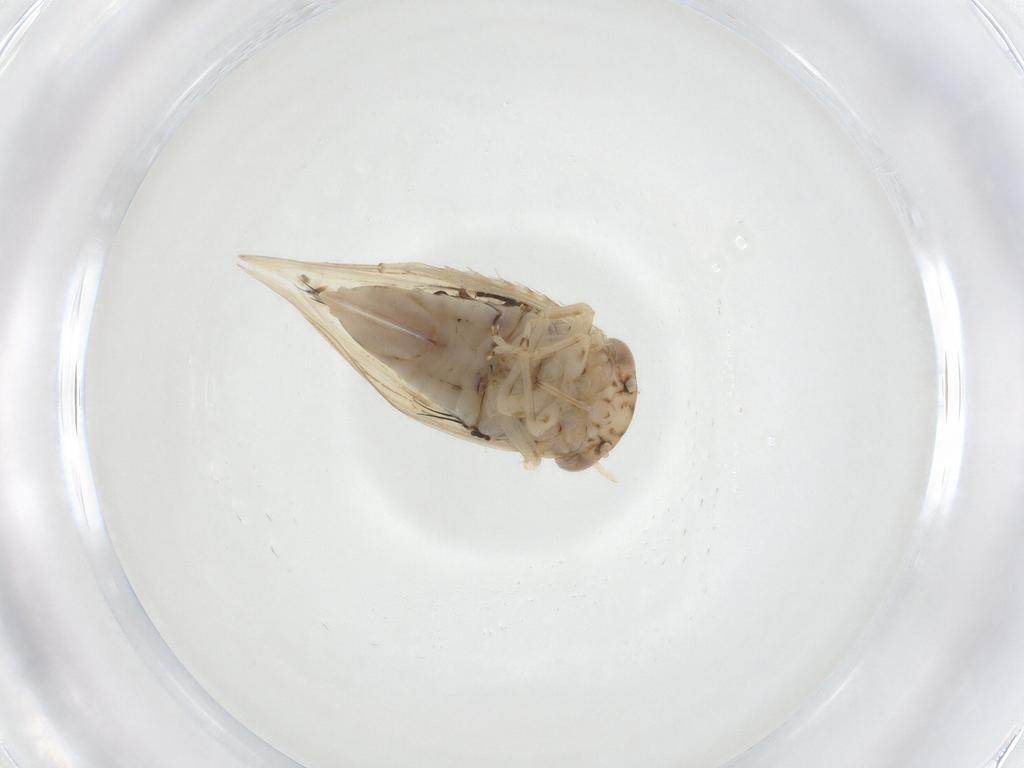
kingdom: Animalia
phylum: Arthropoda
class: Insecta
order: Hemiptera
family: Cicadellidae
